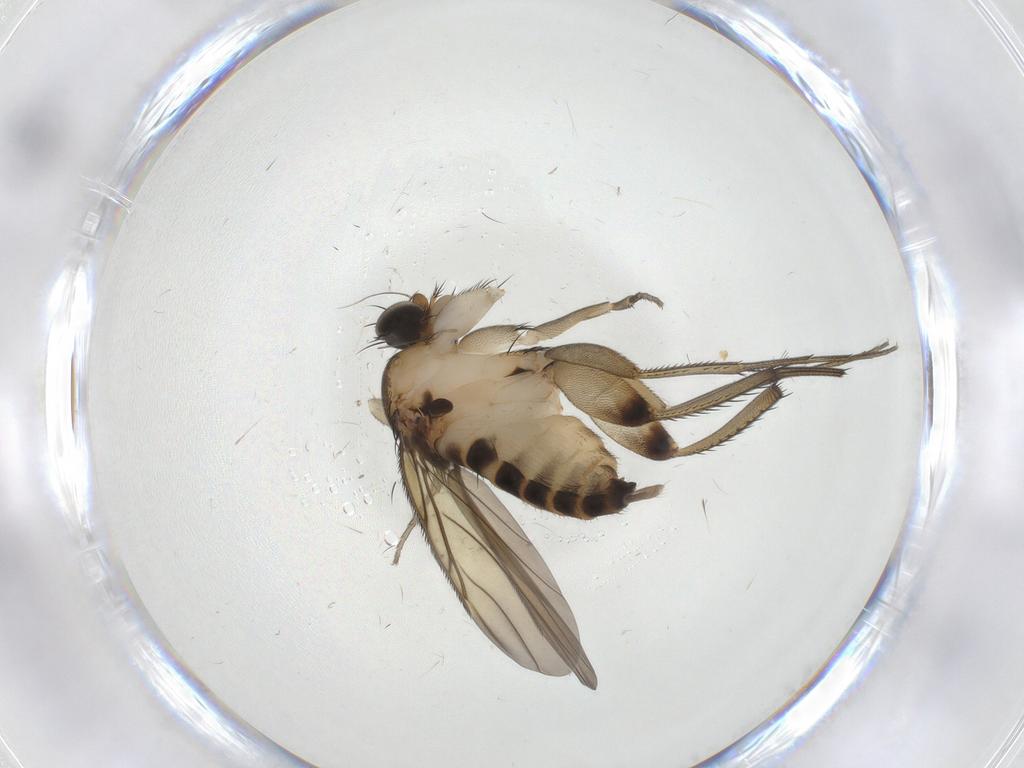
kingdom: Animalia
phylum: Arthropoda
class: Insecta
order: Diptera
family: Phoridae
